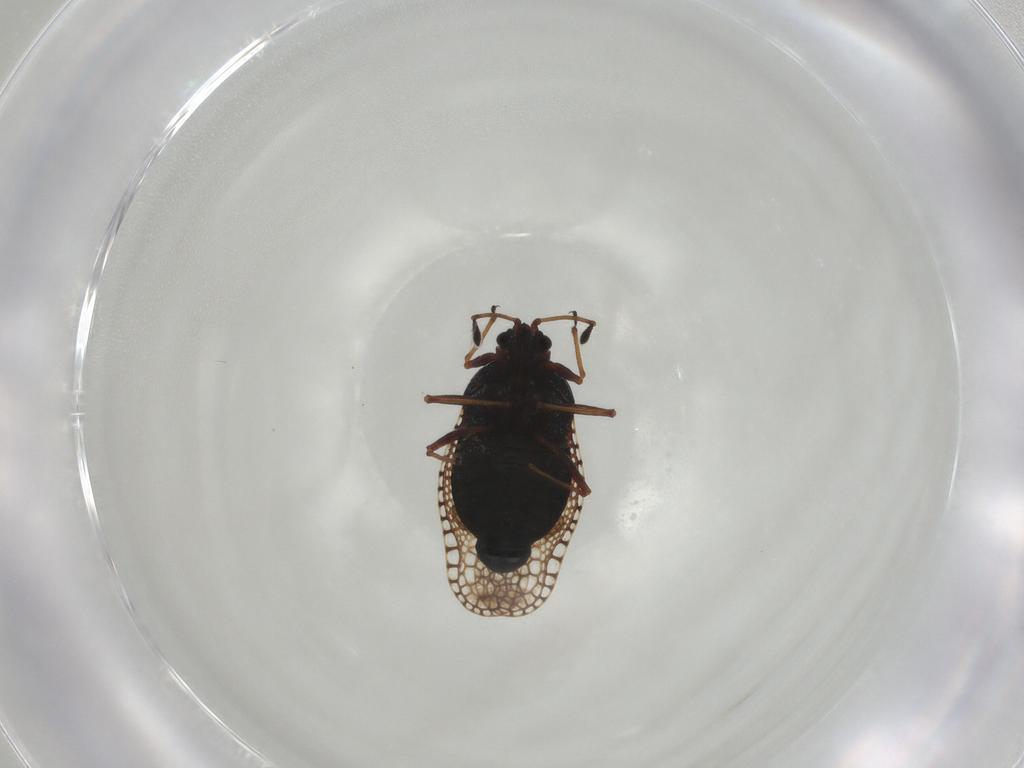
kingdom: Animalia
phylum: Arthropoda
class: Insecta
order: Hemiptera
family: Tingidae
